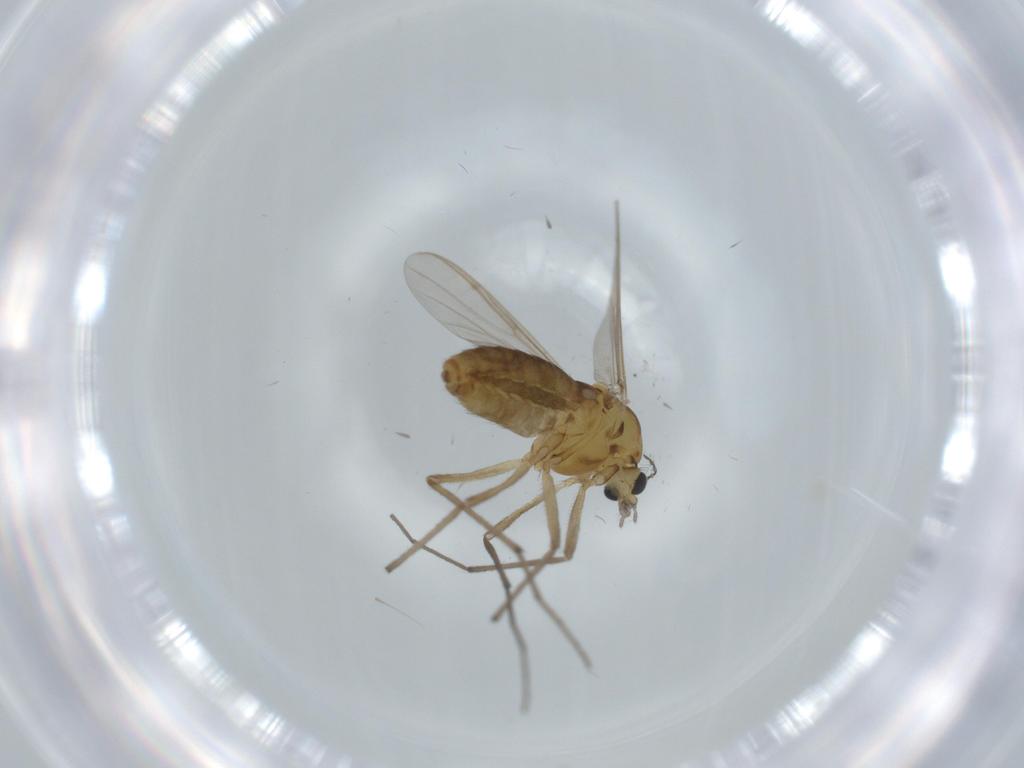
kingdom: Animalia
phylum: Arthropoda
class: Insecta
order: Diptera
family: Chironomidae
